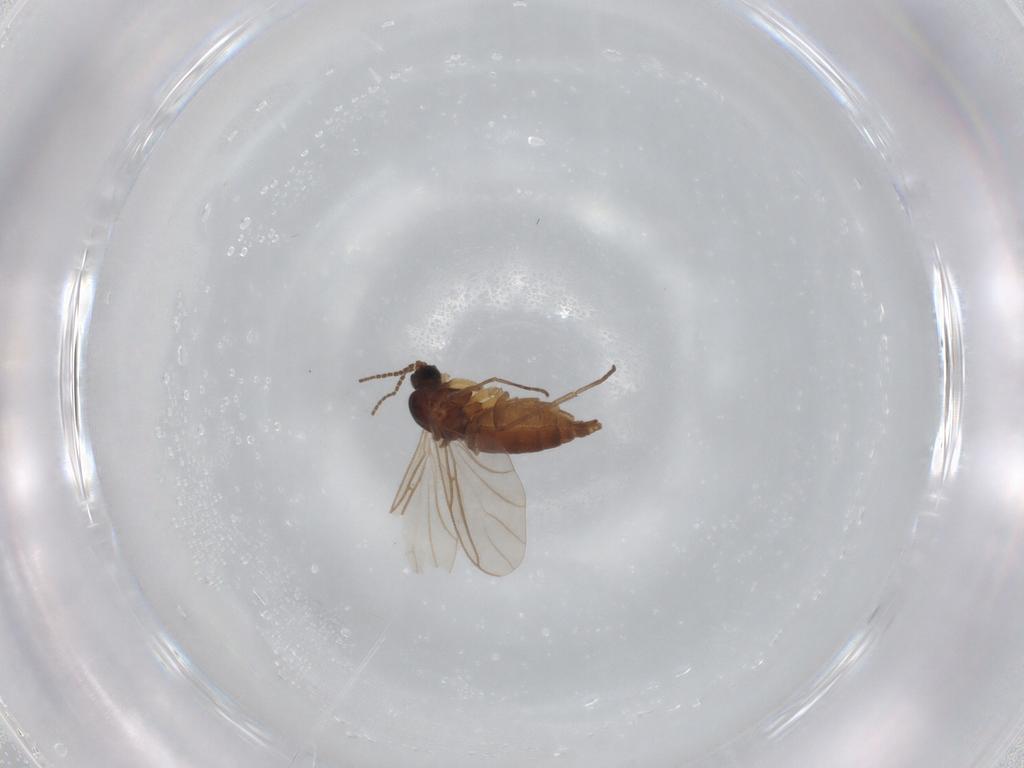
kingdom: Animalia
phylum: Arthropoda
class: Insecta
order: Diptera
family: Sciaridae
